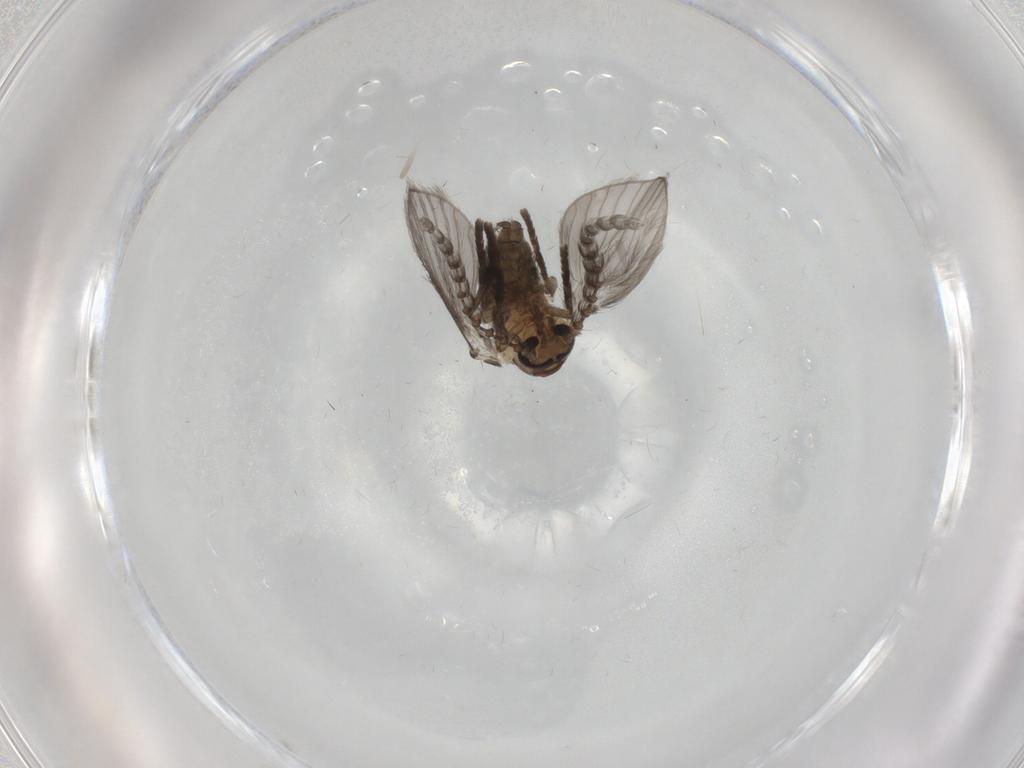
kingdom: Animalia
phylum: Arthropoda
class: Insecta
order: Diptera
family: Psychodidae
